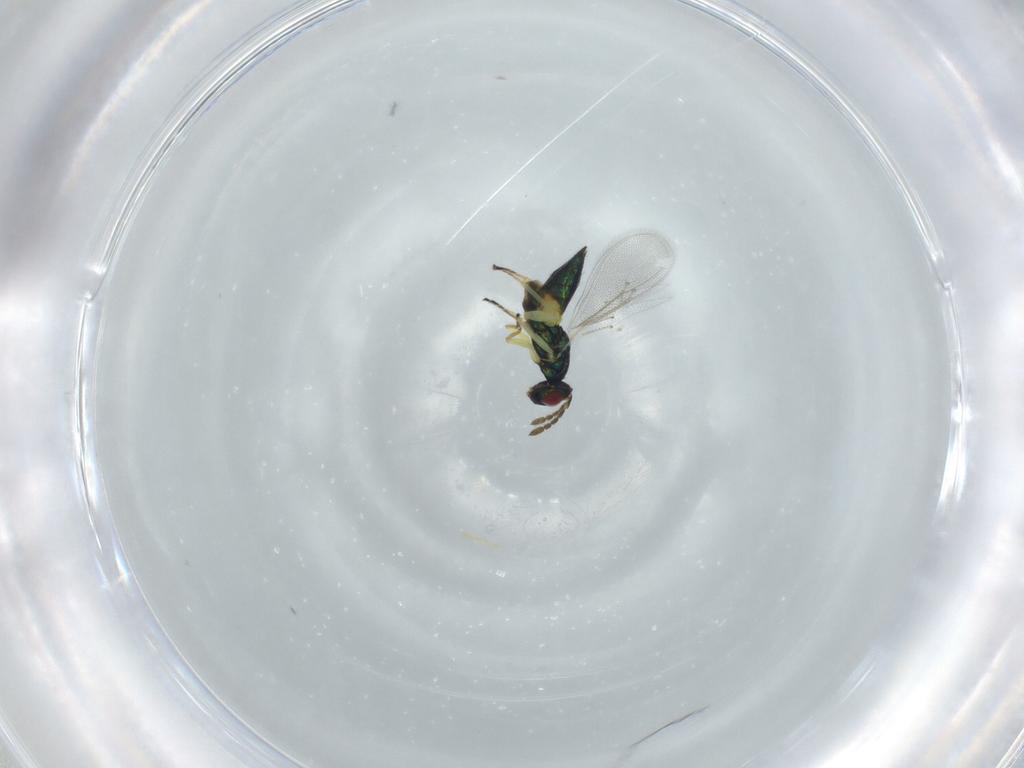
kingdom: Animalia
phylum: Arthropoda
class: Insecta
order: Hymenoptera
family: Eulophidae
